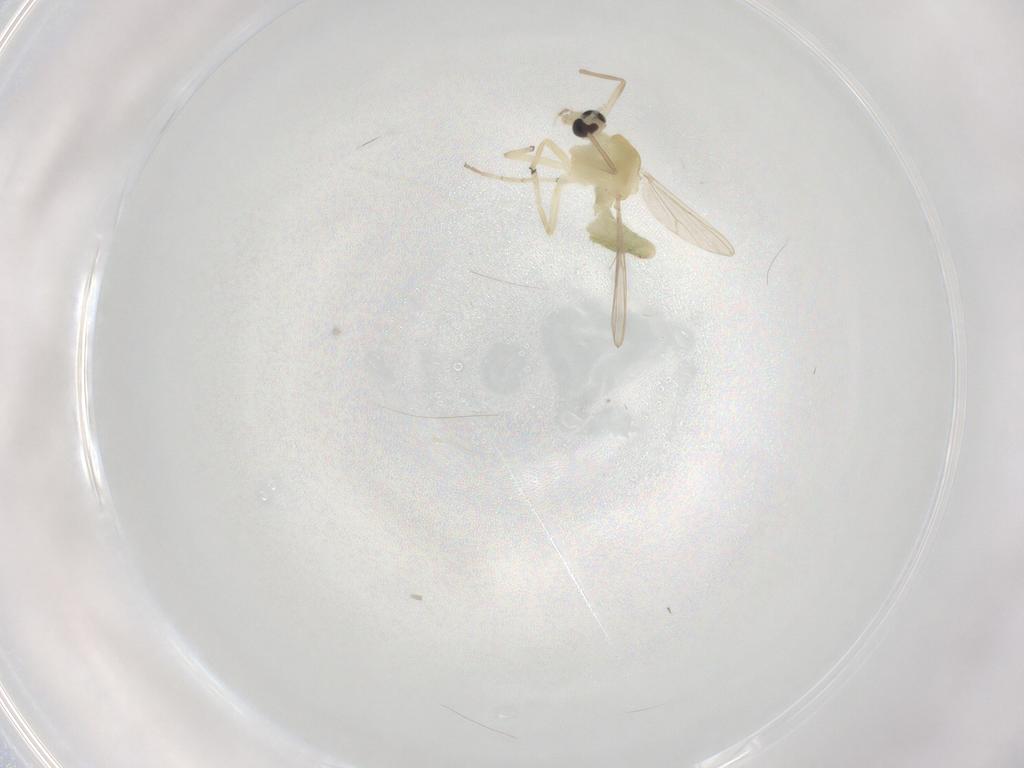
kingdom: Animalia
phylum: Arthropoda
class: Insecta
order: Diptera
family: Chironomidae
